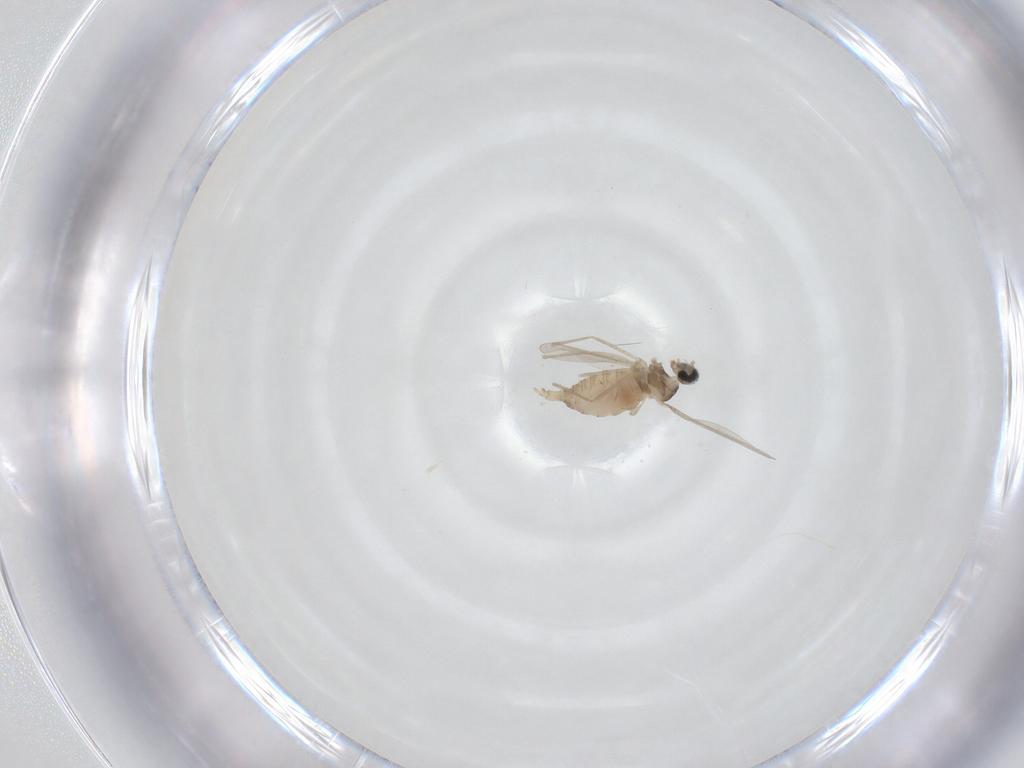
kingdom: Animalia
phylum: Arthropoda
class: Insecta
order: Diptera
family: Cecidomyiidae
